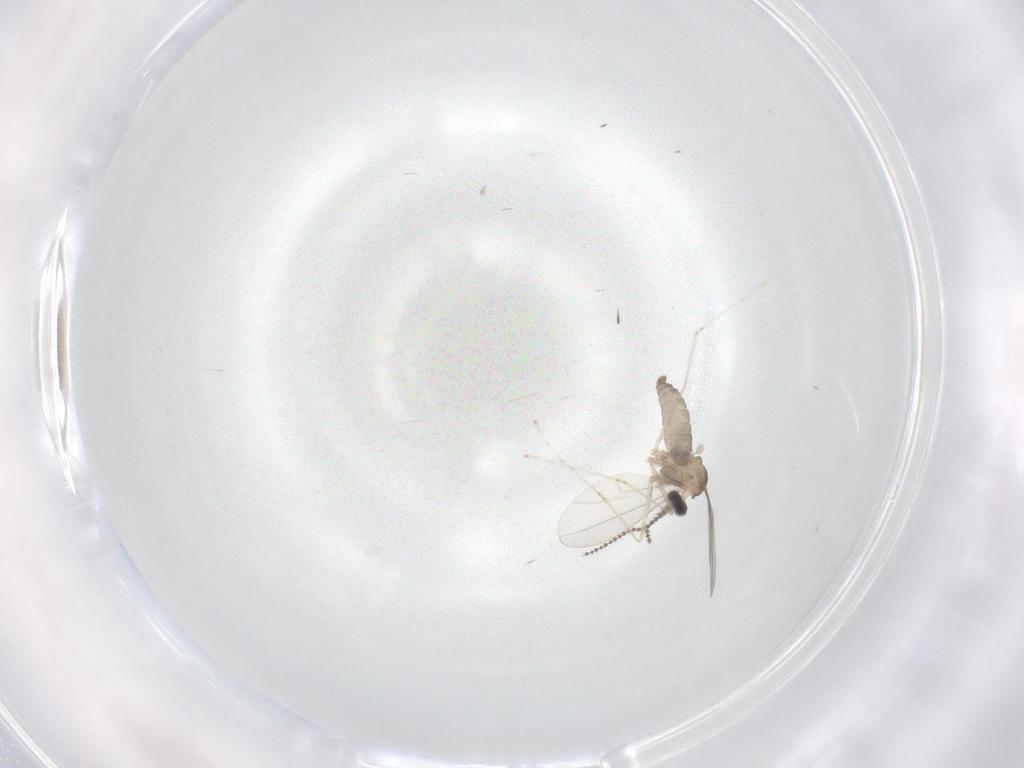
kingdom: Animalia
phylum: Arthropoda
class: Insecta
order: Diptera
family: Cecidomyiidae
